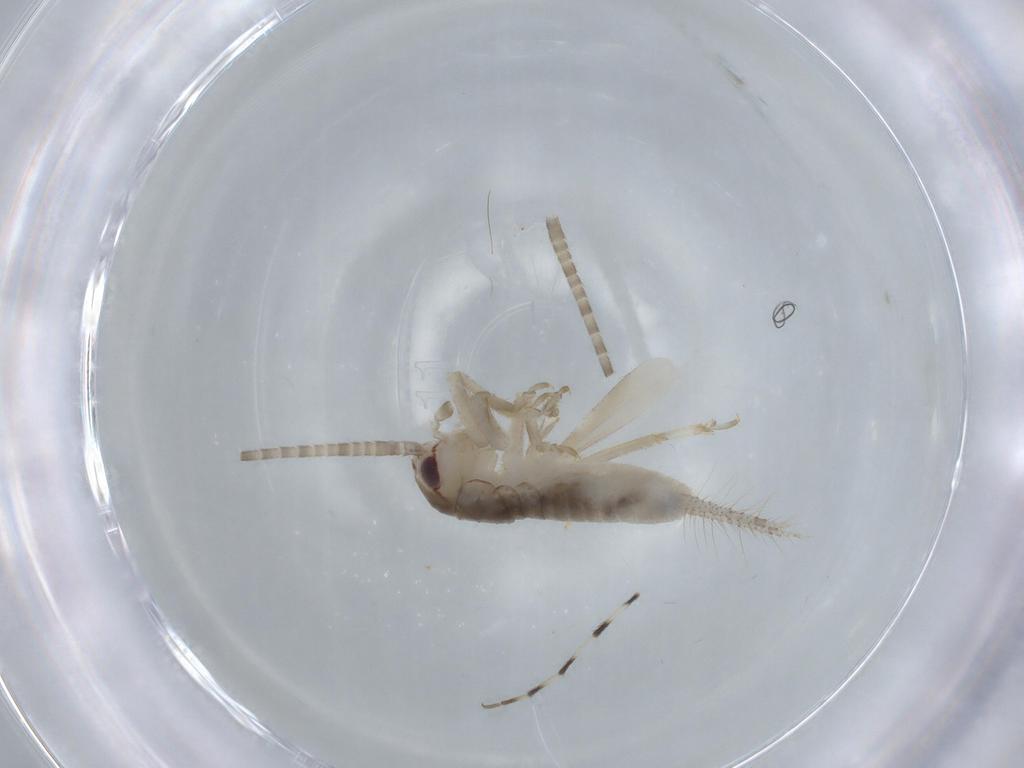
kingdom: Animalia
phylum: Arthropoda
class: Insecta
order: Orthoptera
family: Gryllidae
